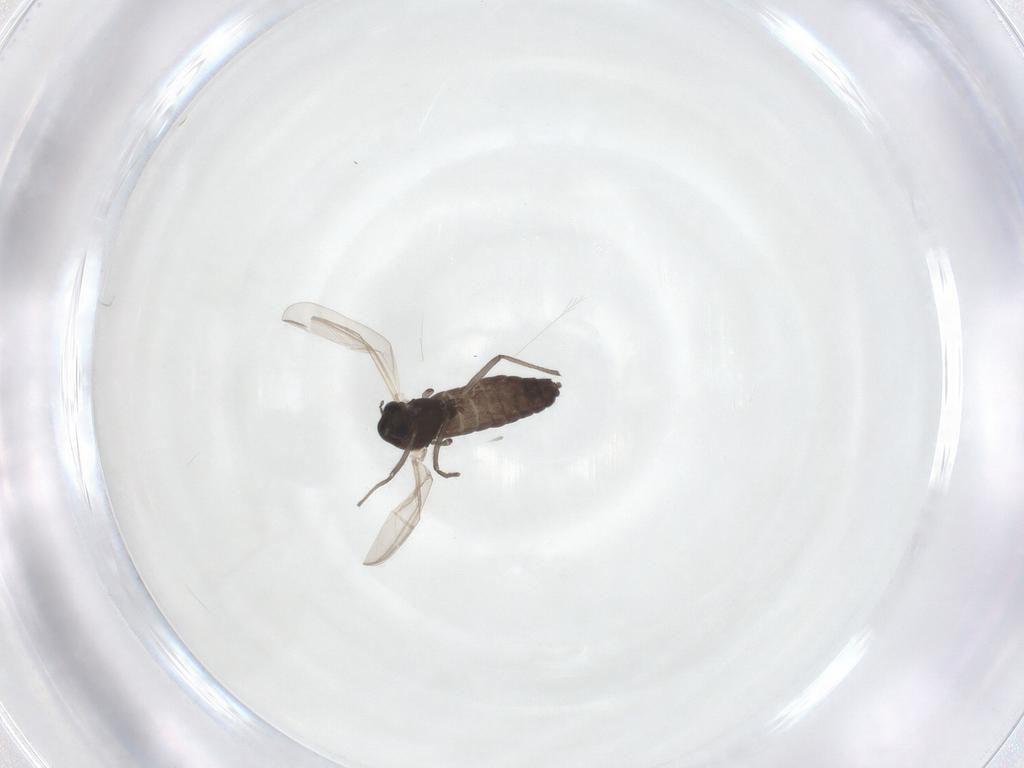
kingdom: Animalia
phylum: Arthropoda
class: Insecta
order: Diptera
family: Chironomidae
